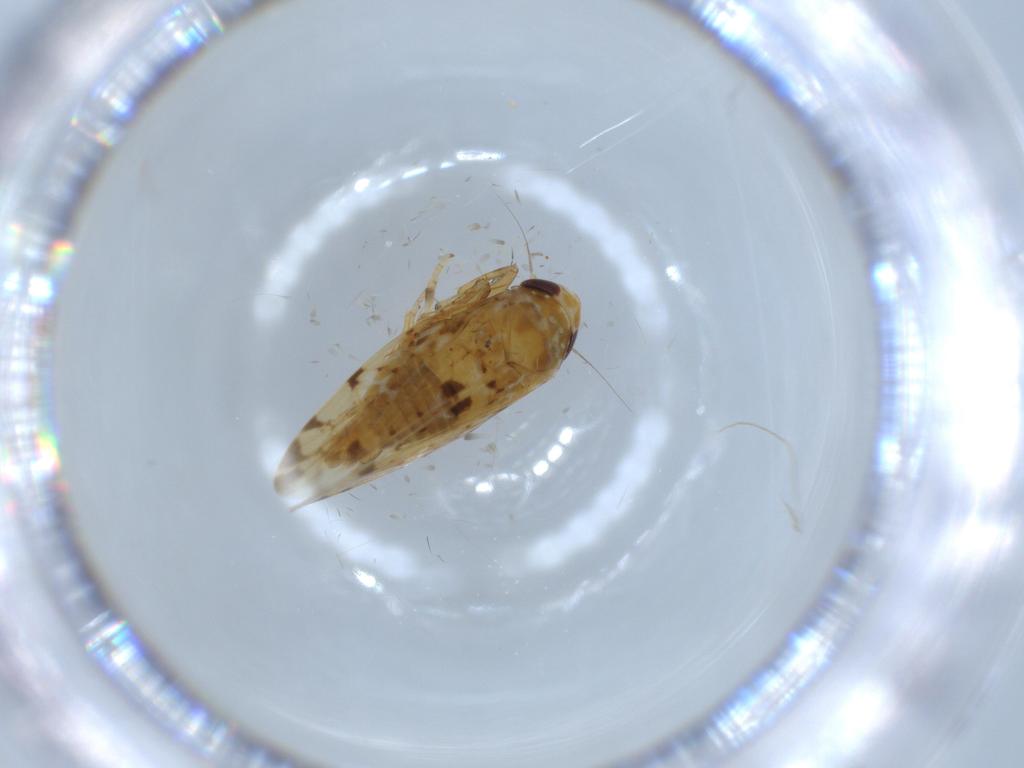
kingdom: Animalia
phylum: Arthropoda
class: Insecta
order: Hemiptera
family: Cicadellidae
